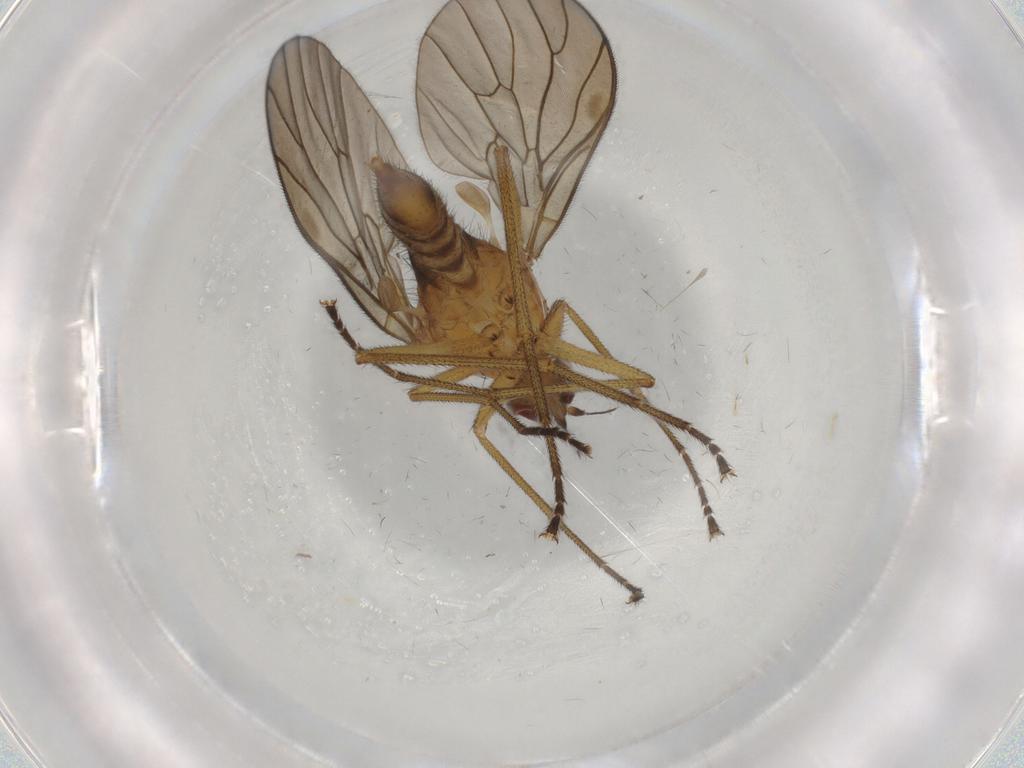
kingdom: Animalia
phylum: Arthropoda
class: Insecta
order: Diptera
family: Brachystomatidae
